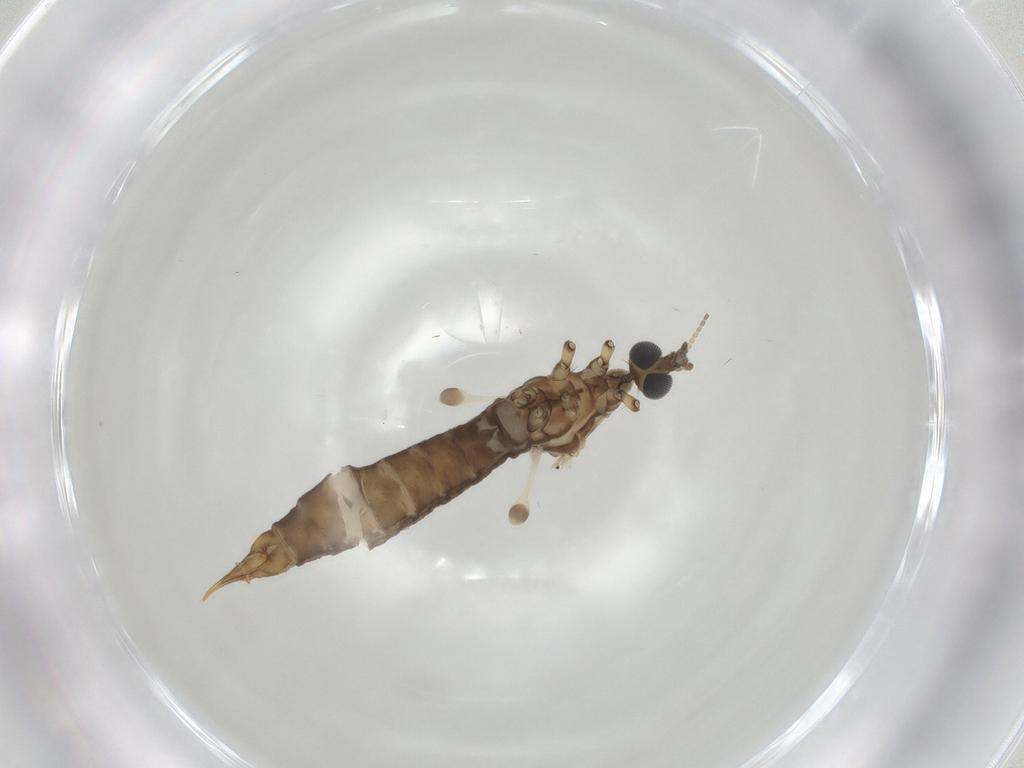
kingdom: Animalia
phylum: Arthropoda
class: Insecta
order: Diptera
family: Limoniidae
